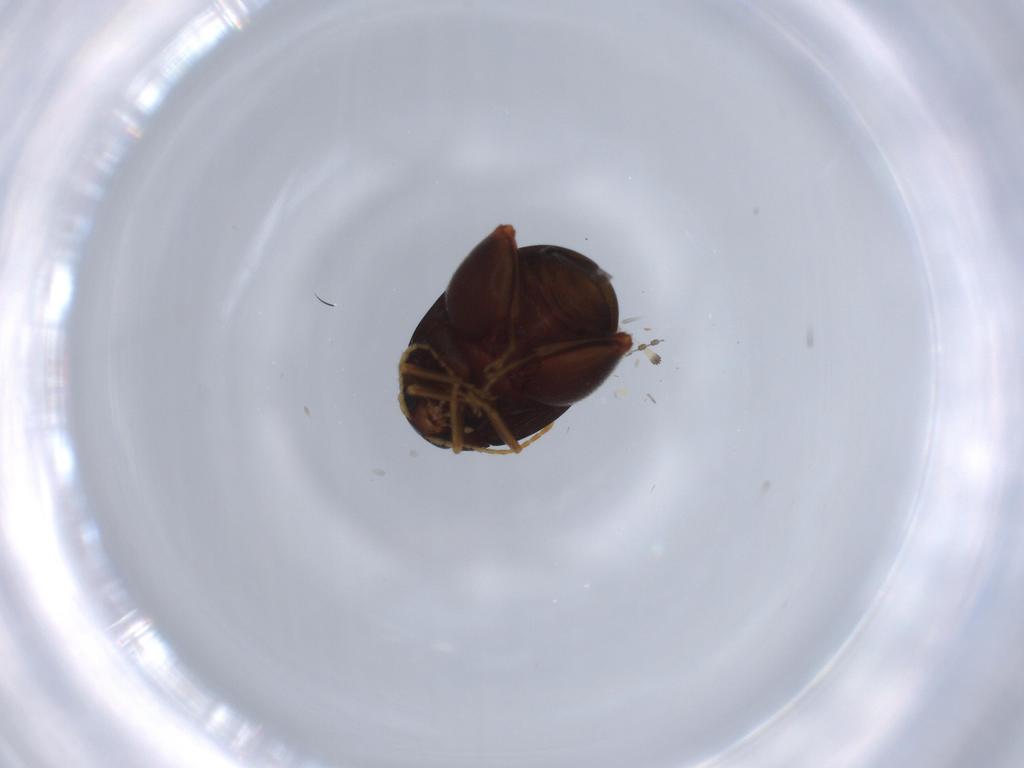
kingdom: Animalia
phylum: Arthropoda
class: Insecta
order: Coleoptera
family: Chrysomelidae
